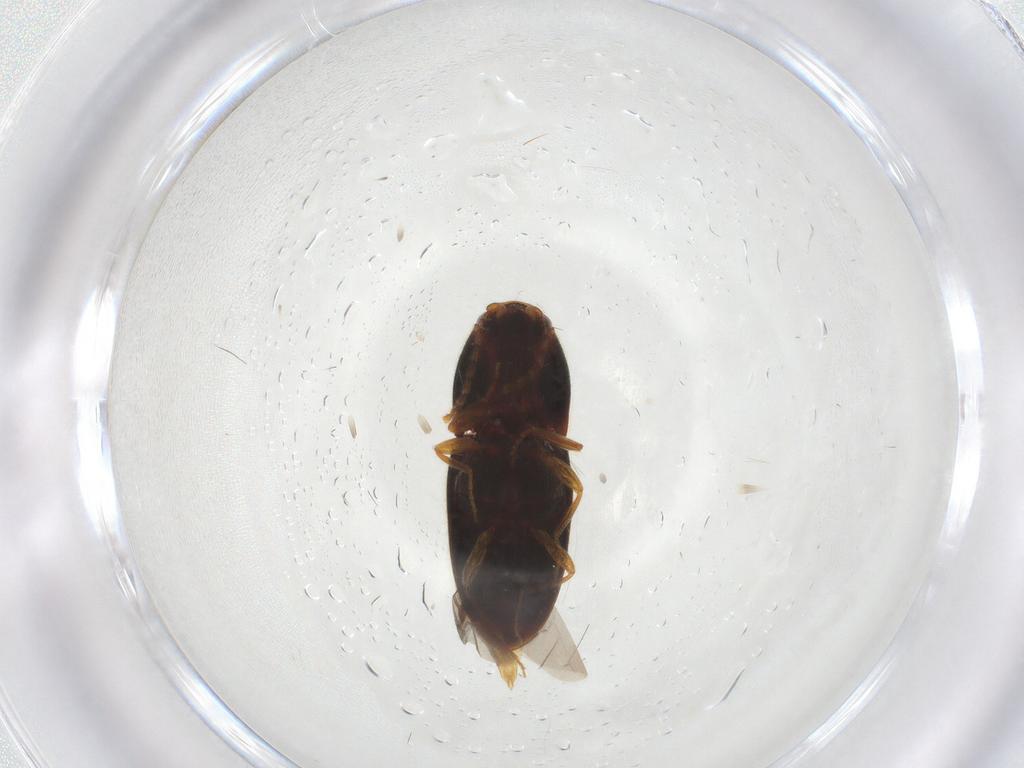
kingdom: Animalia
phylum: Arthropoda
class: Insecta
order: Coleoptera
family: Elateridae
